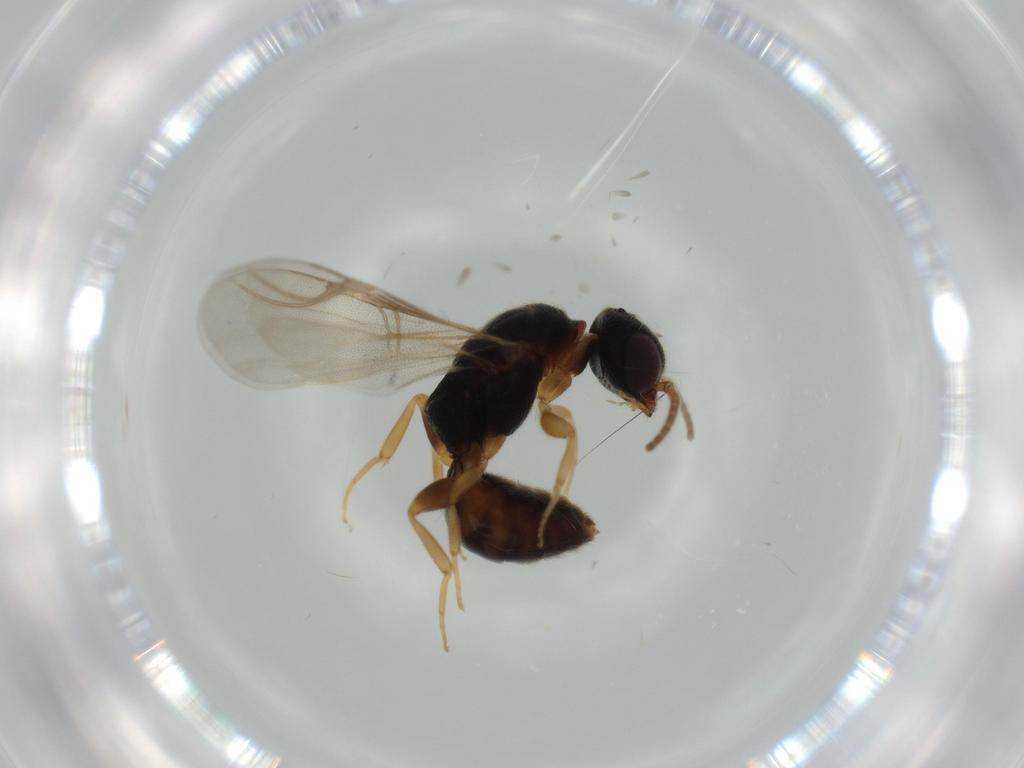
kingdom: Animalia
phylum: Arthropoda
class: Insecta
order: Hymenoptera
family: Bethylidae
